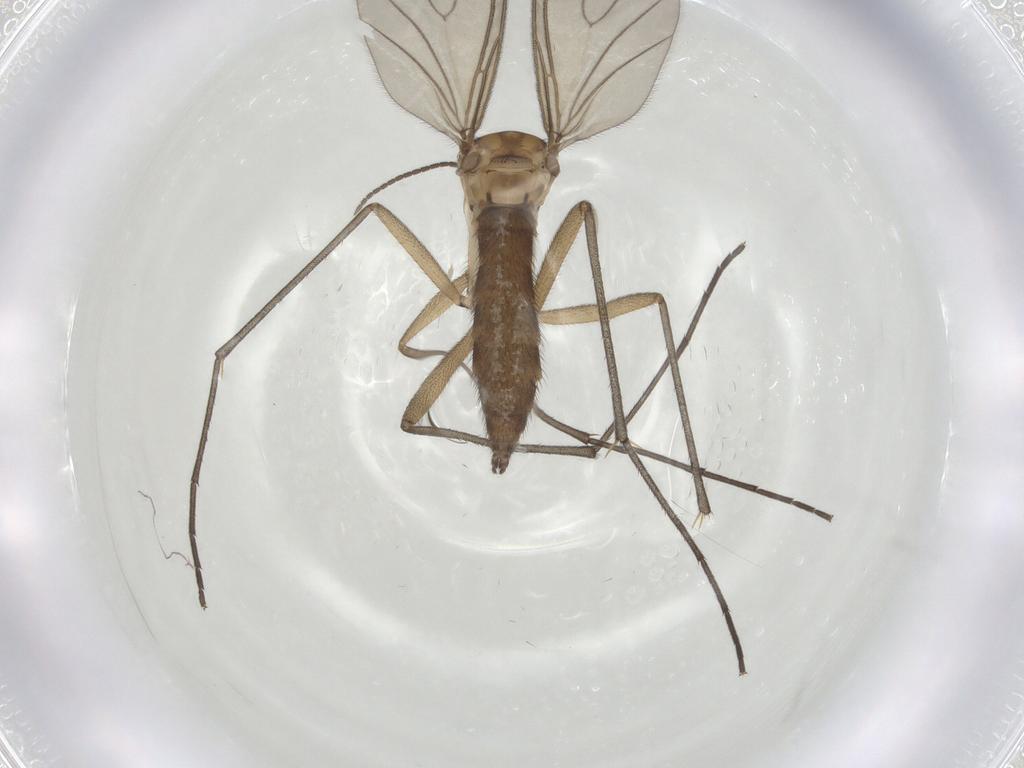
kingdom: Animalia
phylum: Arthropoda
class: Insecta
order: Diptera
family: Sciaridae
